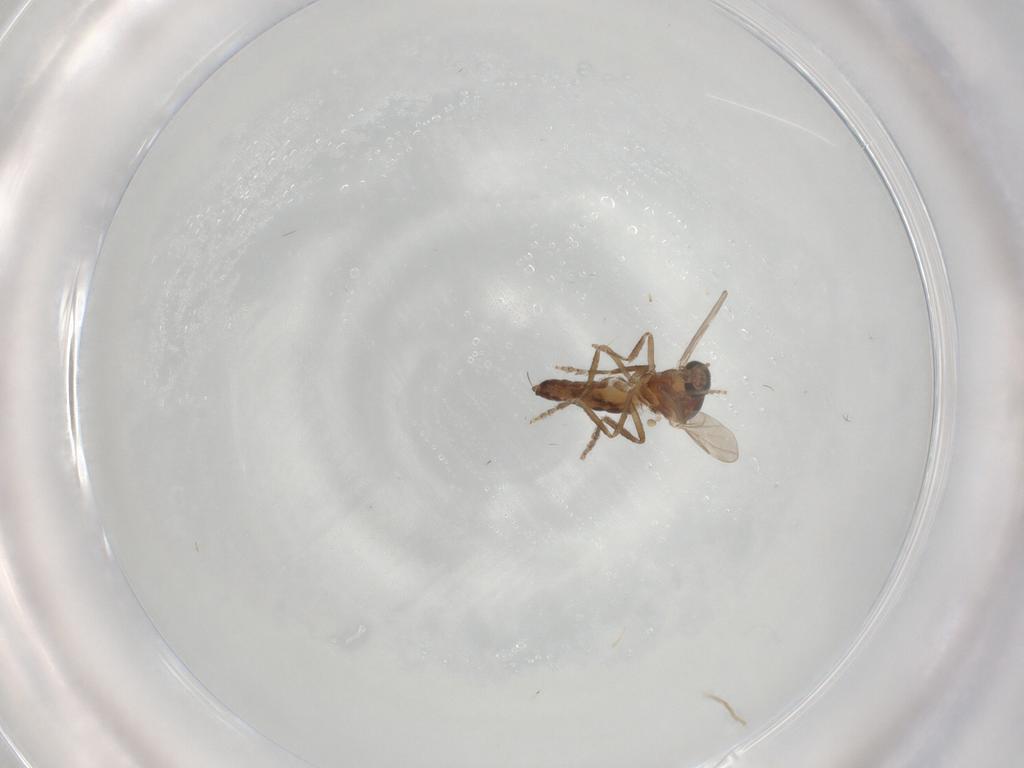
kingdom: Animalia
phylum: Arthropoda
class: Insecta
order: Diptera
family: Ceratopogonidae
